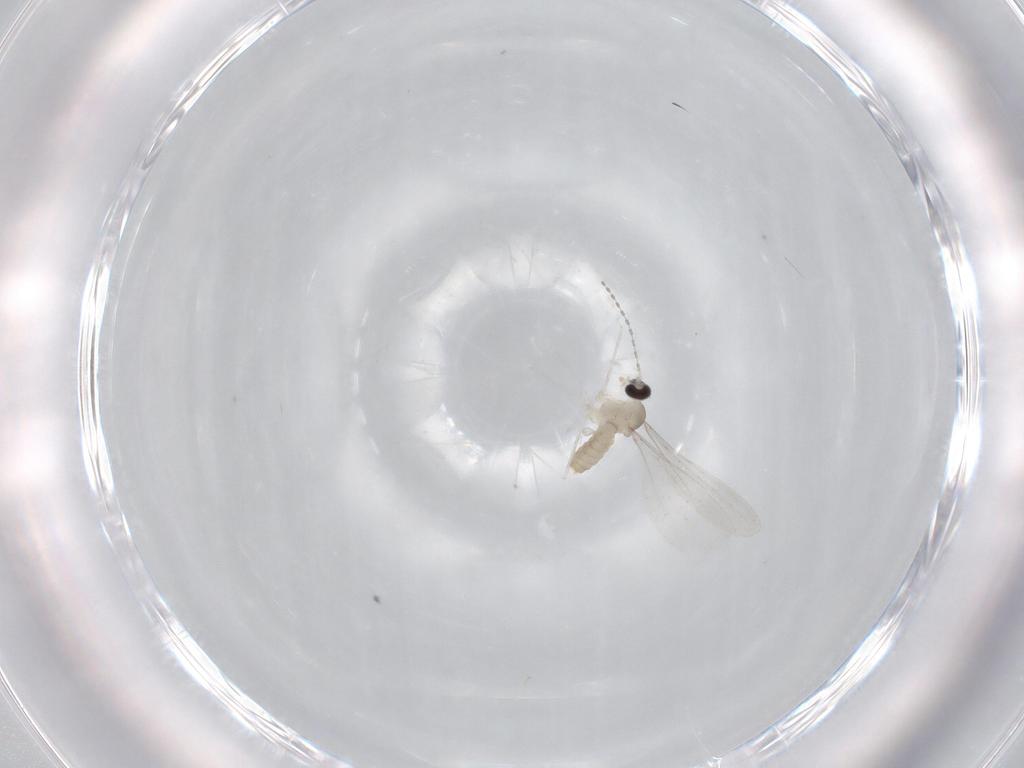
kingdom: Animalia
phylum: Arthropoda
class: Insecta
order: Diptera
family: Cecidomyiidae
